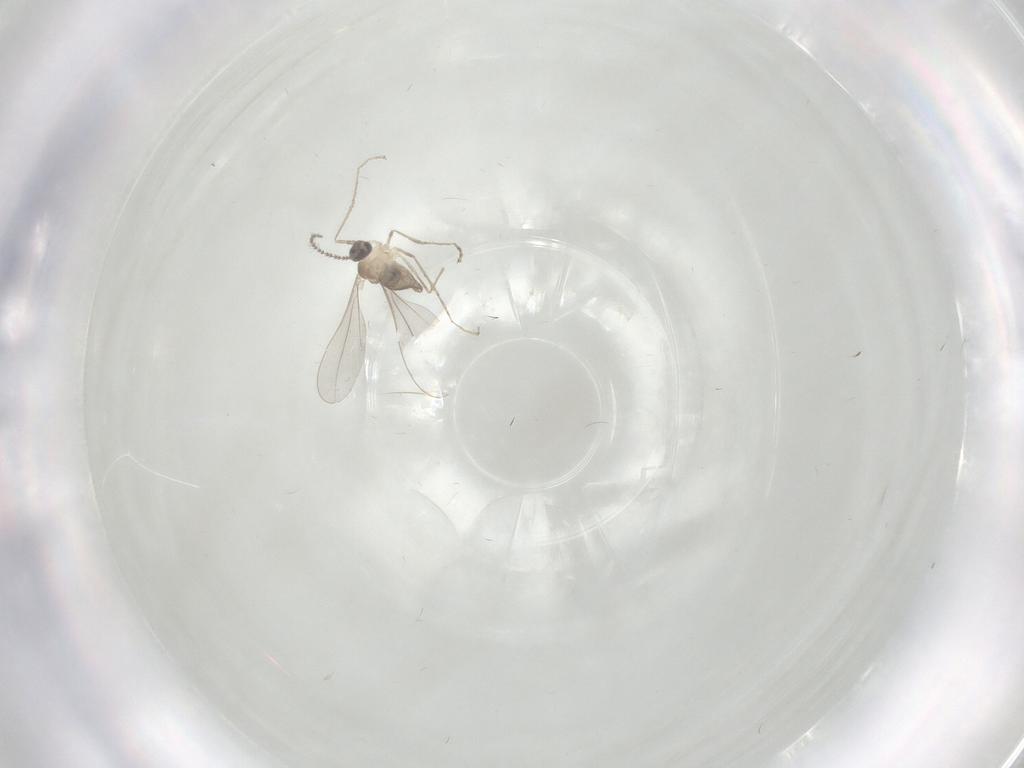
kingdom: Animalia
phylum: Arthropoda
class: Insecta
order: Diptera
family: Cecidomyiidae
